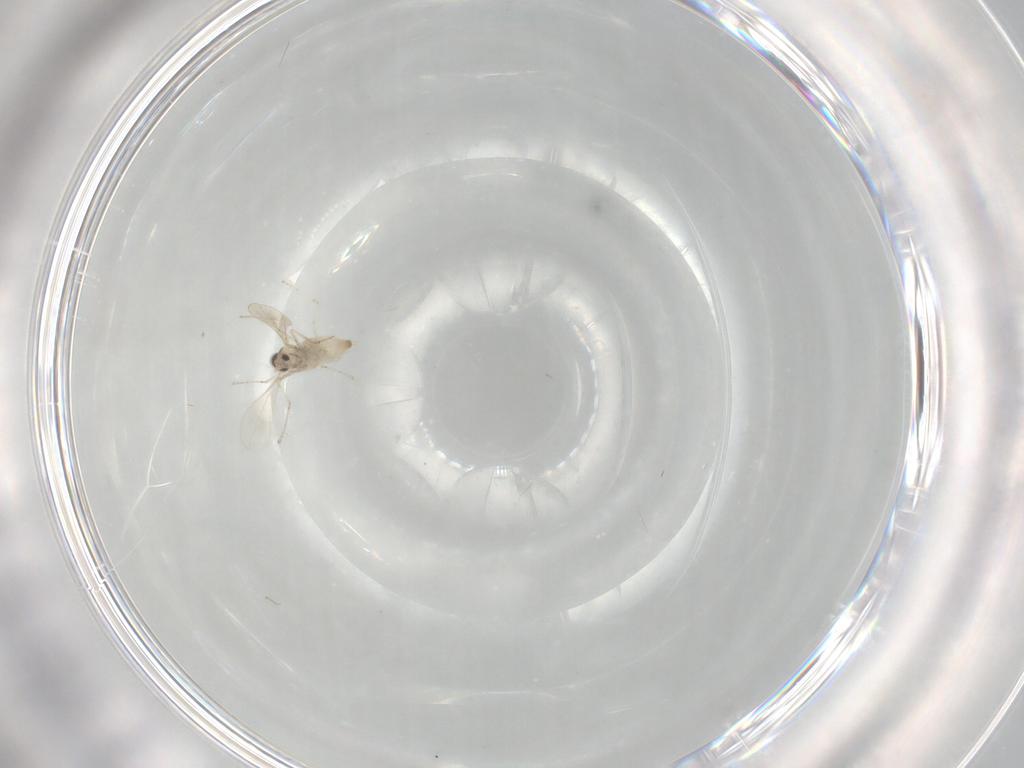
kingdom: Animalia
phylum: Arthropoda
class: Insecta
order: Diptera
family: Cecidomyiidae
